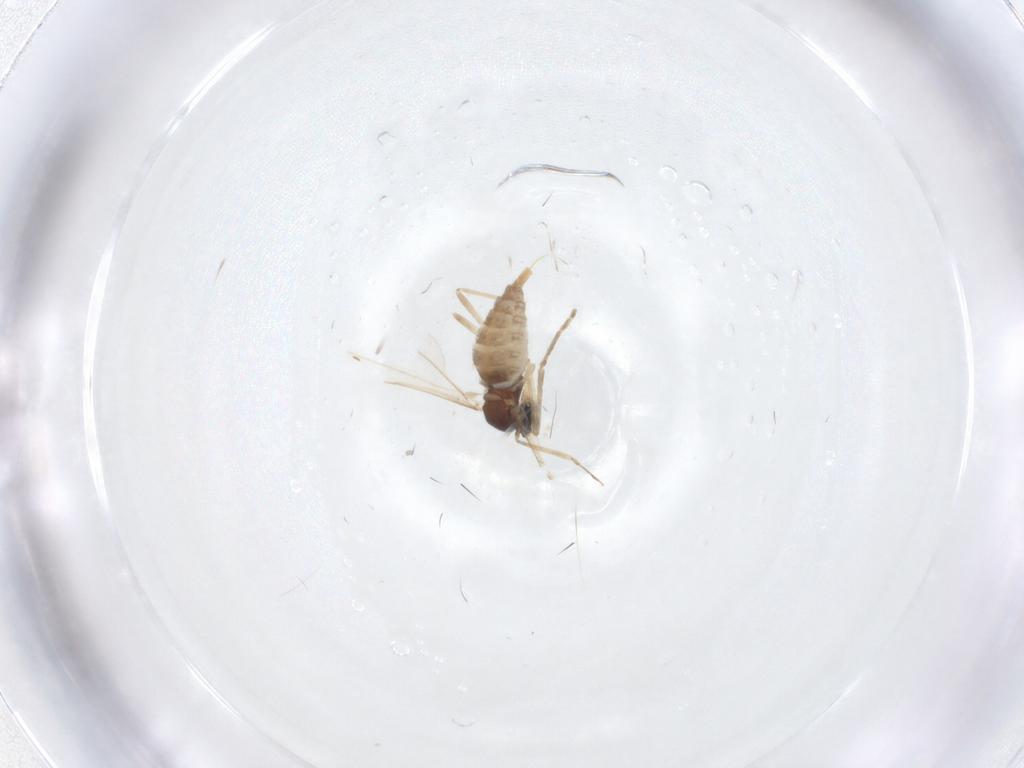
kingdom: Animalia
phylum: Arthropoda
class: Insecta
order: Diptera
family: Cecidomyiidae
